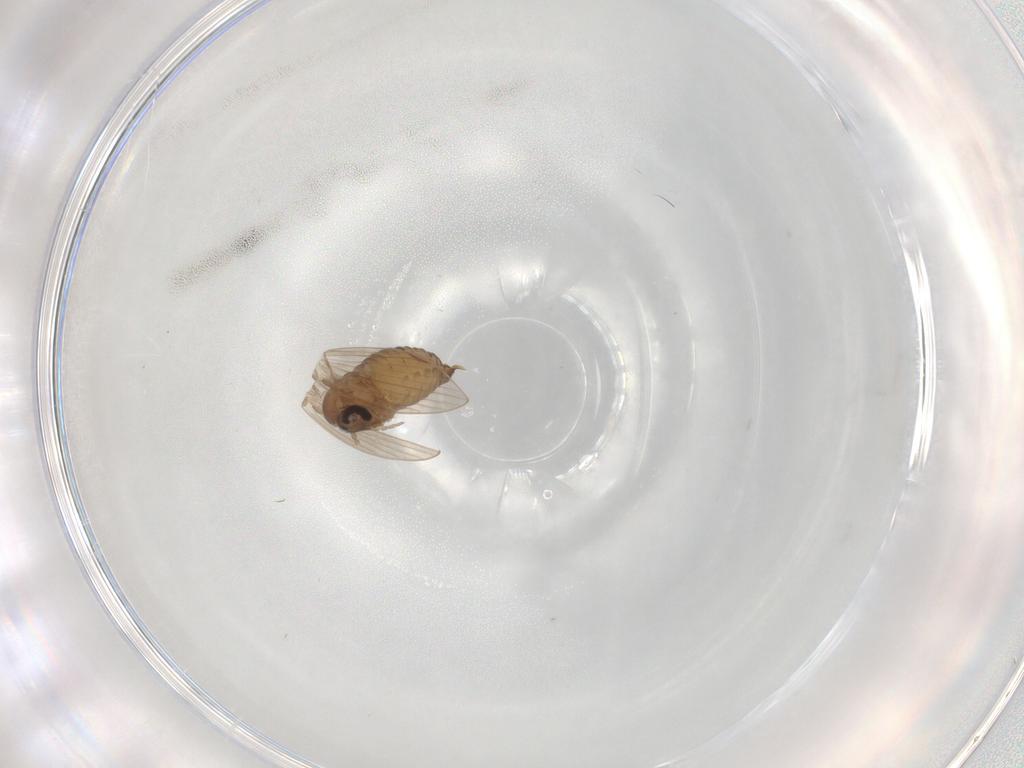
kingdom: Animalia
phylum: Arthropoda
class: Insecta
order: Diptera
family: Psychodidae
